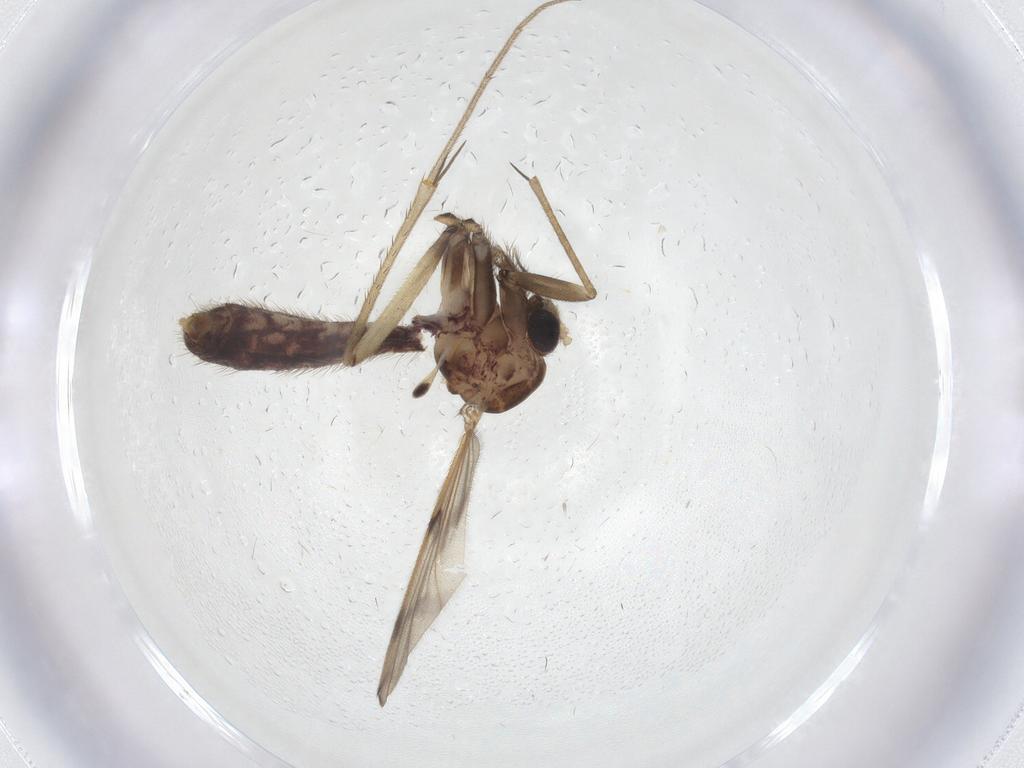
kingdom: Animalia
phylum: Arthropoda
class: Insecta
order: Diptera
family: Mycetophilidae
